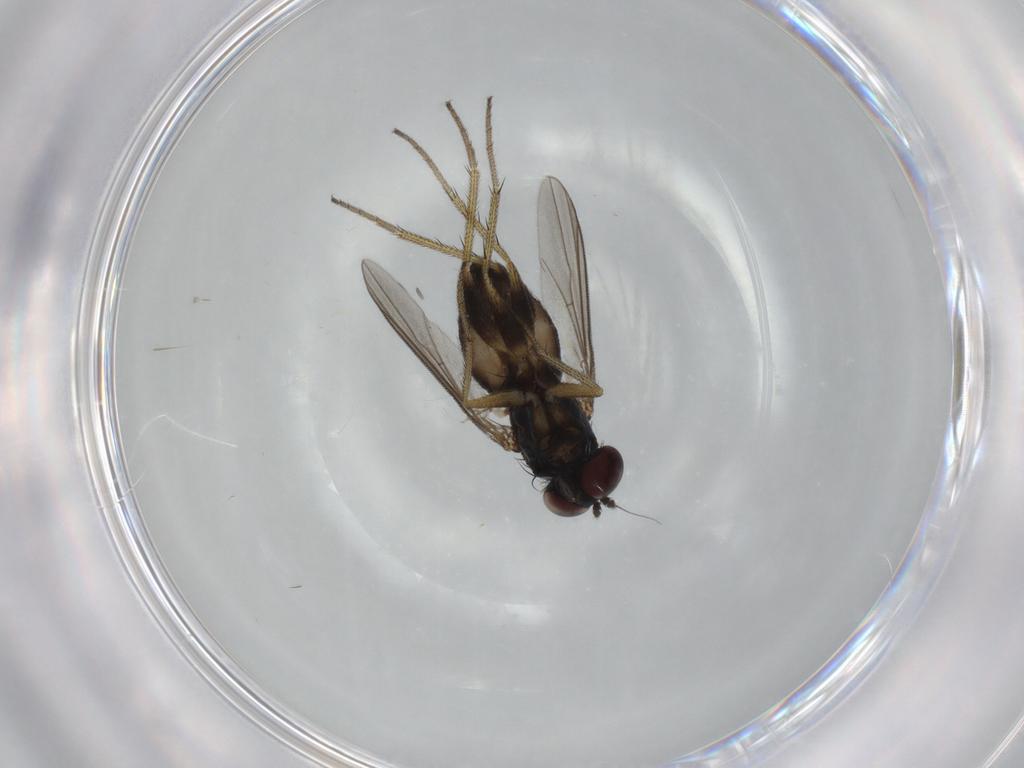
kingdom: Animalia
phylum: Arthropoda
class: Insecta
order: Diptera
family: Dolichopodidae
